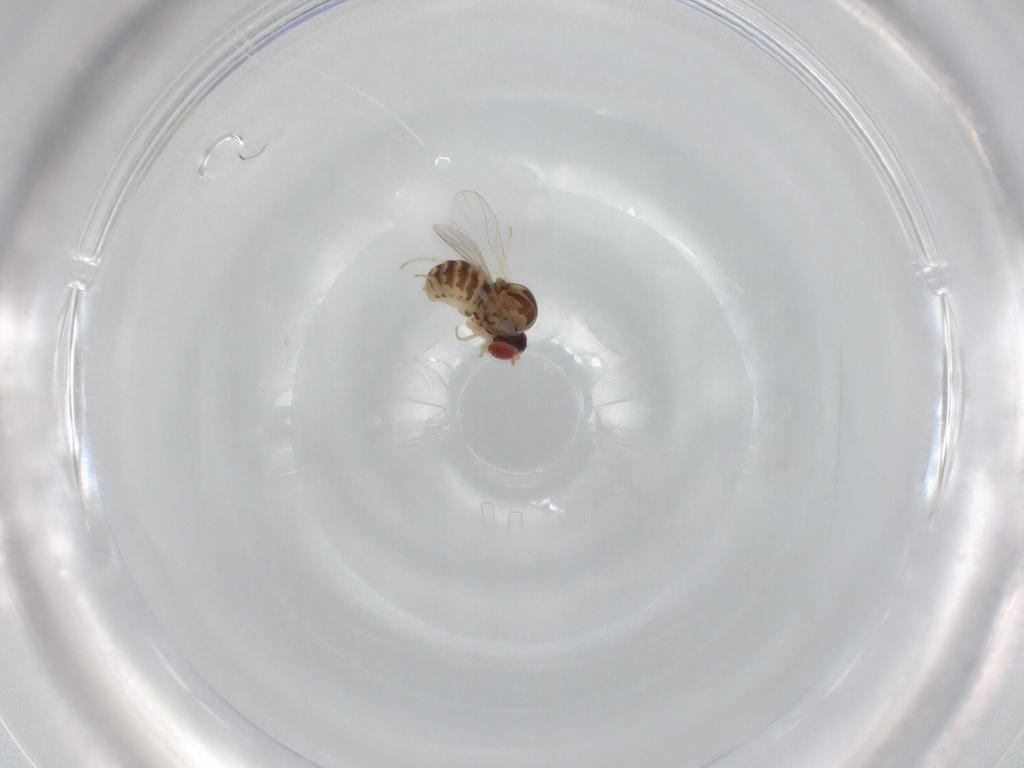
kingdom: Animalia
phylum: Arthropoda
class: Insecta
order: Diptera
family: Bombyliidae
